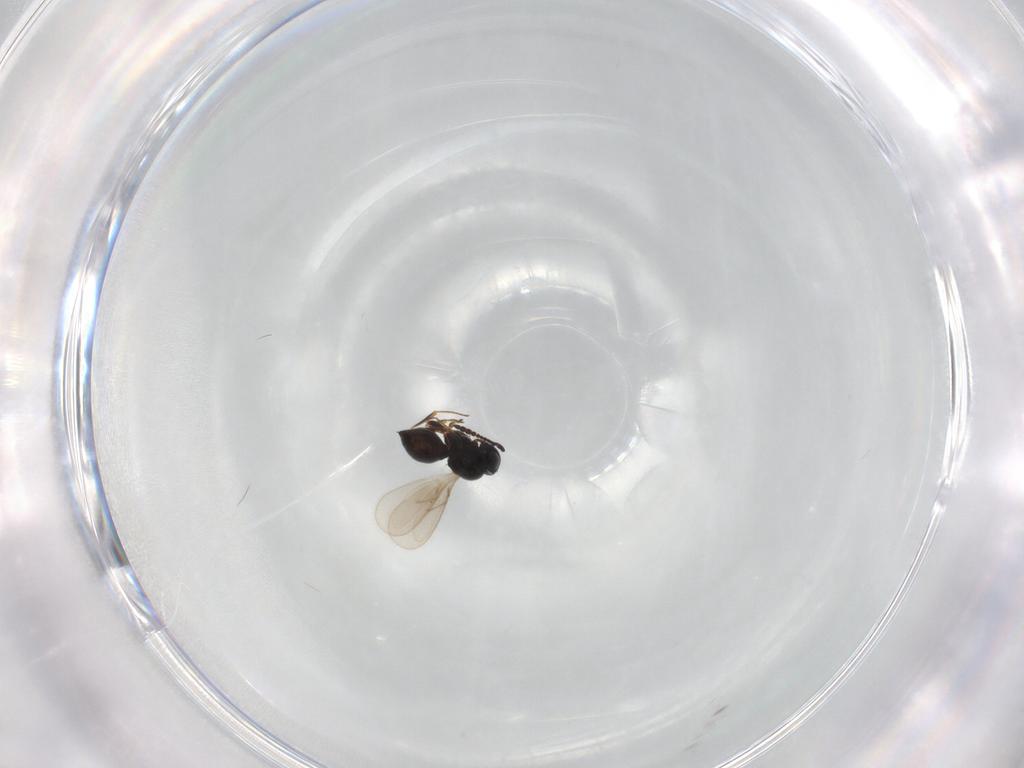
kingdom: Animalia
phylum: Arthropoda
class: Insecta
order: Hymenoptera
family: Scelionidae
